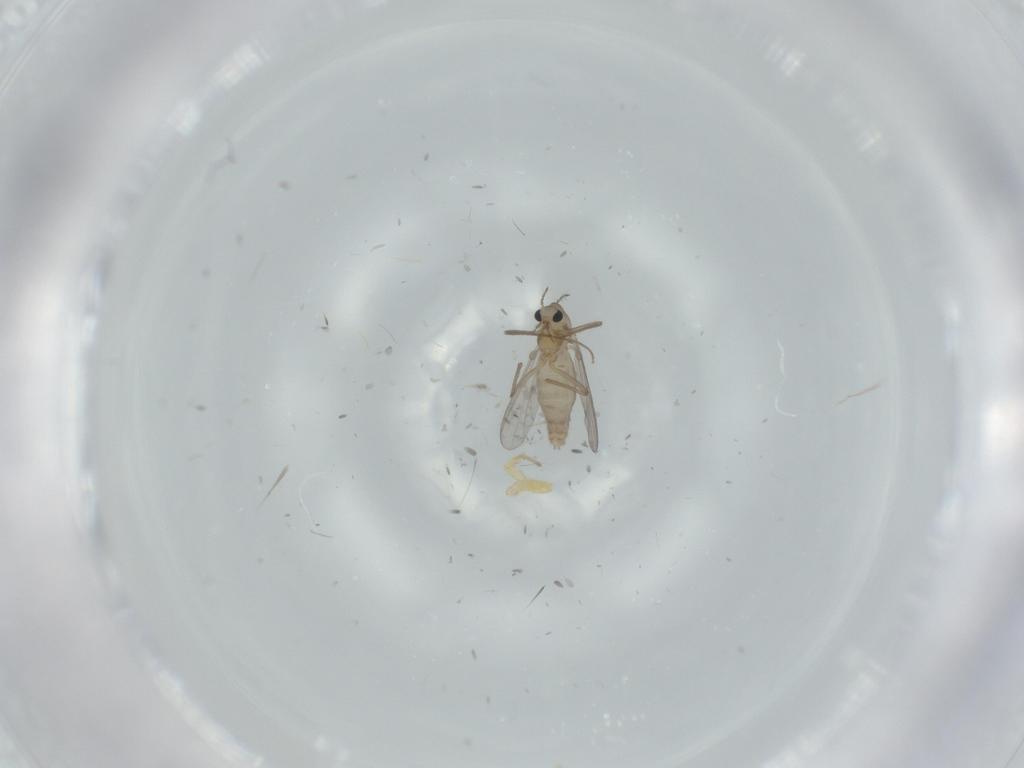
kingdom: Animalia
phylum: Arthropoda
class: Insecta
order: Diptera
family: Chironomidae
